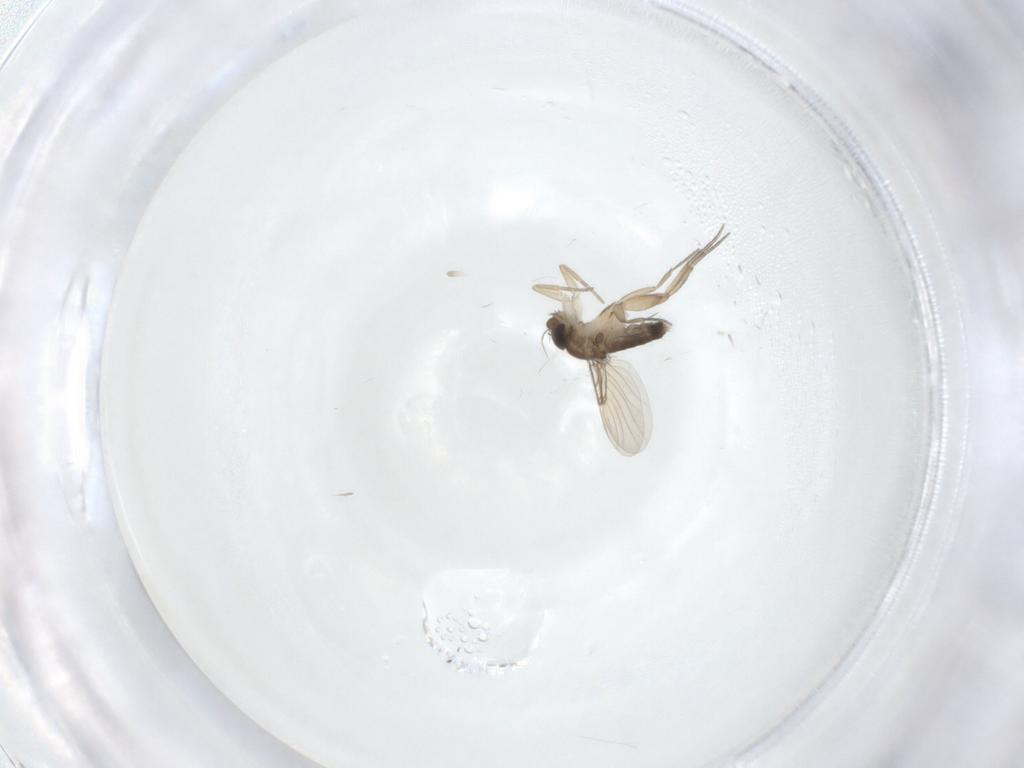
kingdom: Animalia
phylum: Arthropoda
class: Insecta
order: Diptera
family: Phoridae
